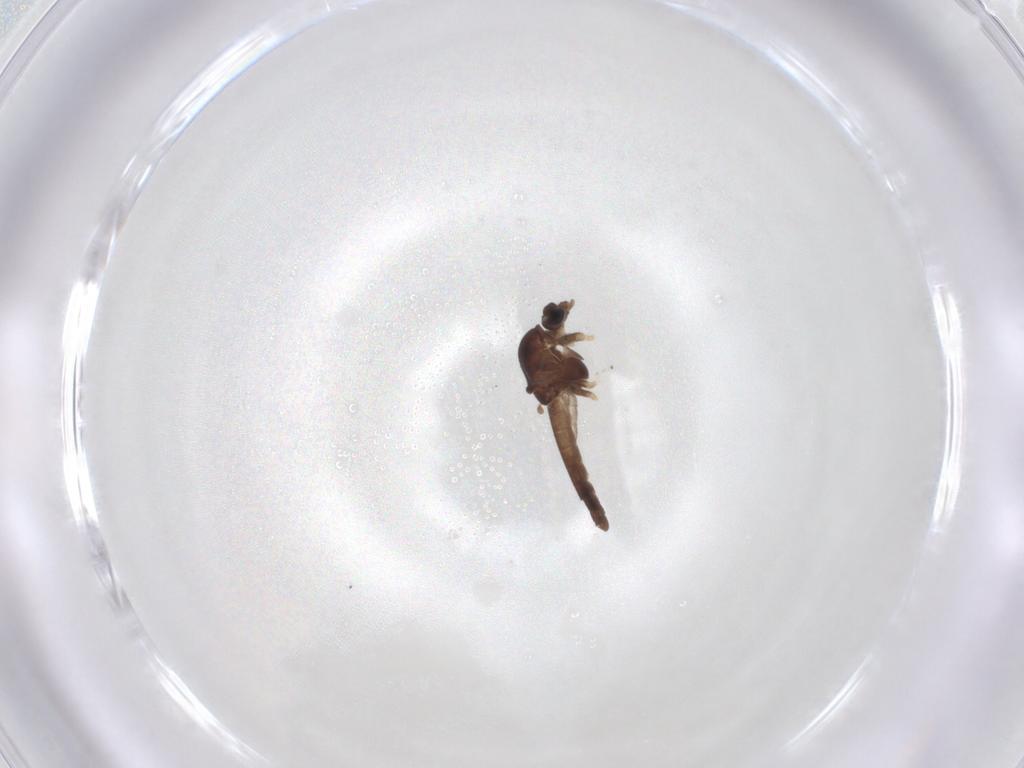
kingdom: Animalia
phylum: Arthropoda
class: Insecta
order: Diptera
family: Chironomidae
